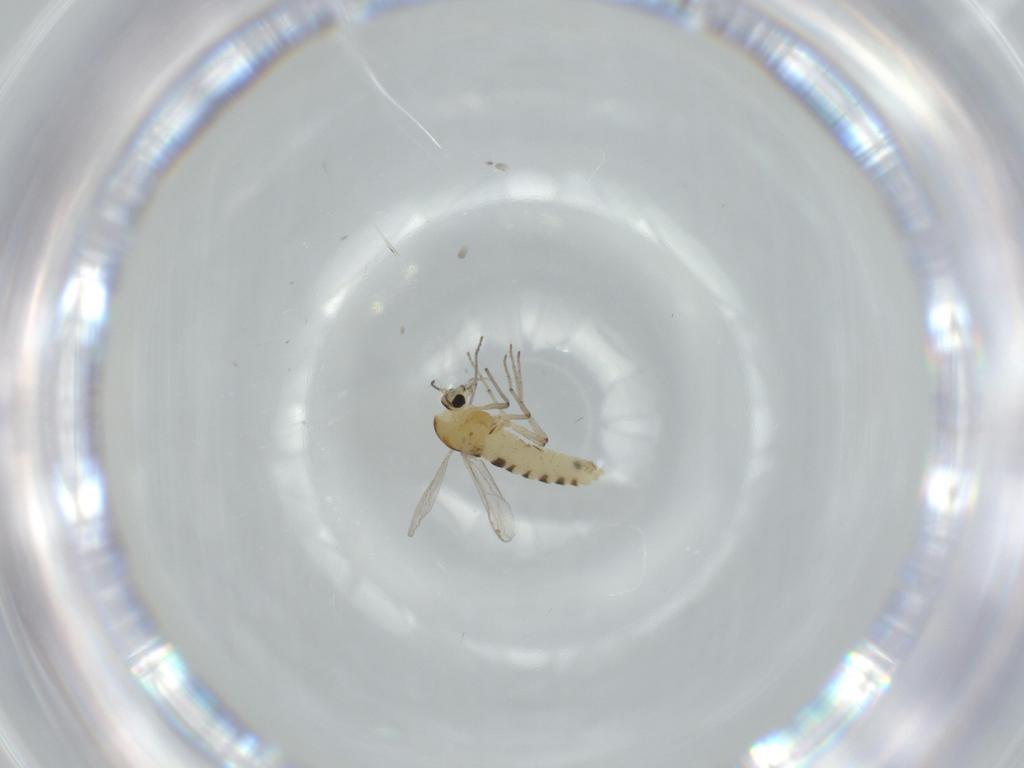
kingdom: Animalia
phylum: Arthropoda
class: Insecta
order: Diptera
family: Chironomidae
